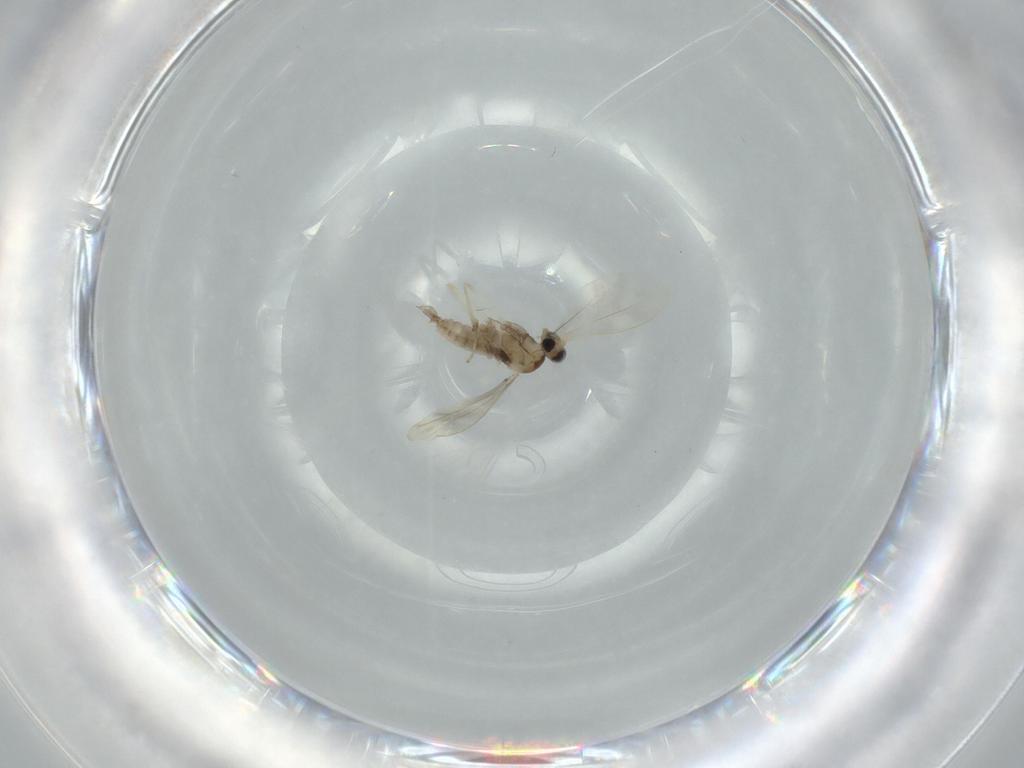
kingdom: Animalia
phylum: Arthropoda
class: Insecta
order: Diptera
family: Sciaridae
